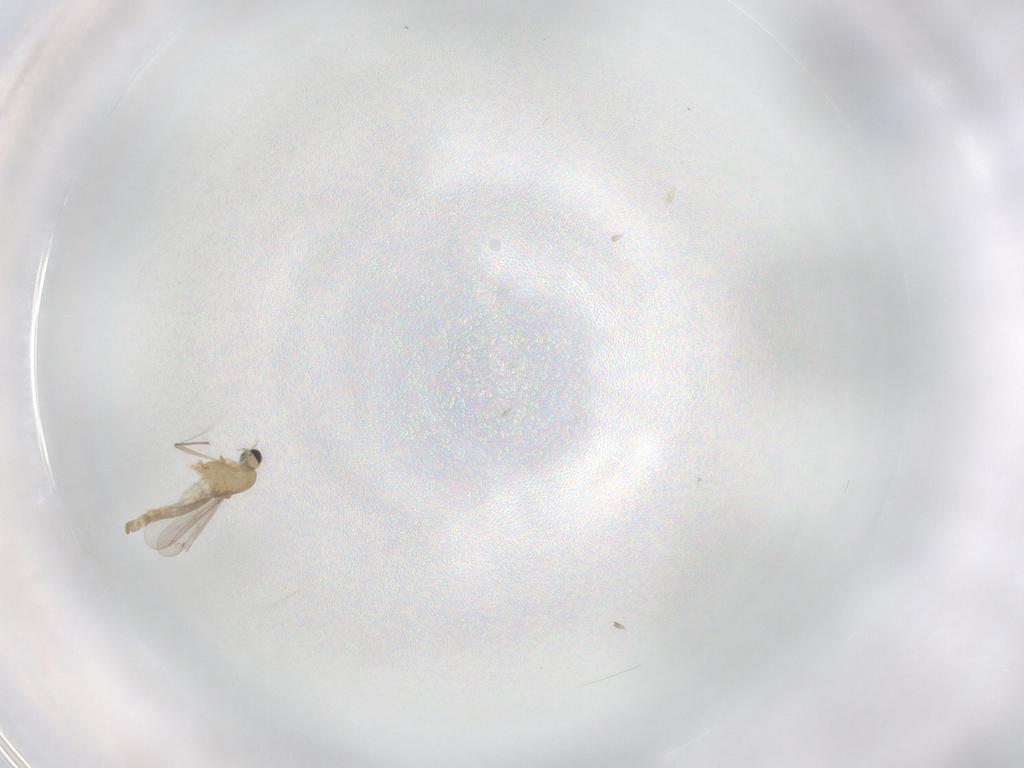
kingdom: Animalia
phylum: Arthropoda
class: Insecta
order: Diptera
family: Chironomidae
